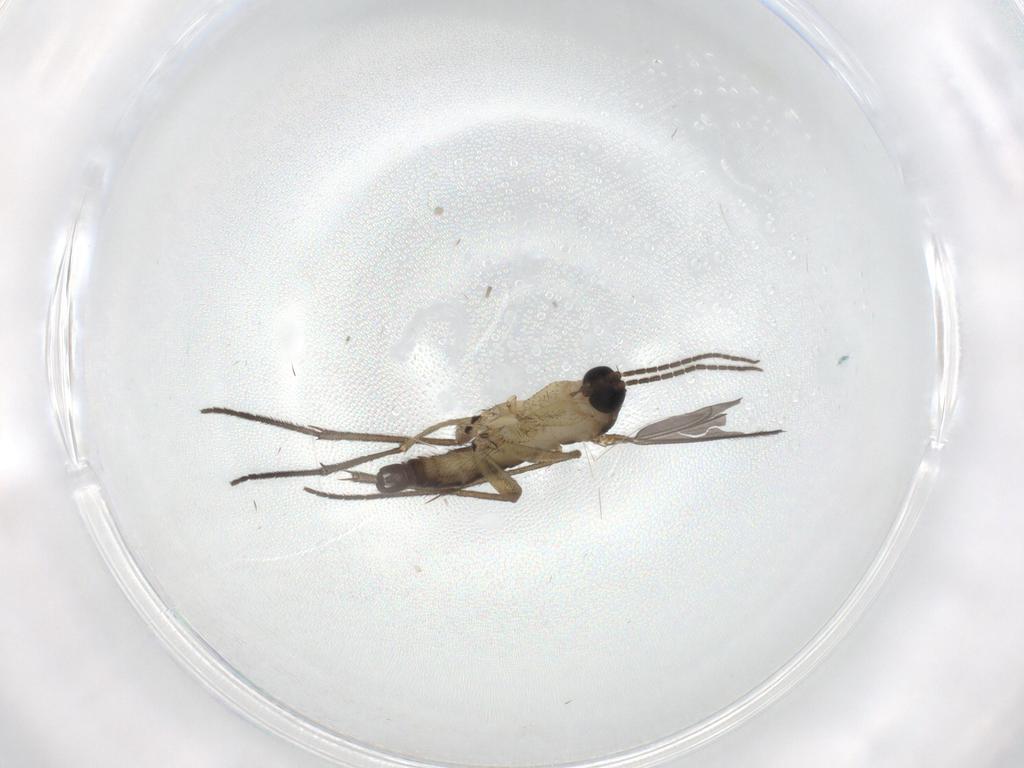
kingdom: Animalia
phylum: Arthropoda
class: Insecta
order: Diptera
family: Sciaridae
